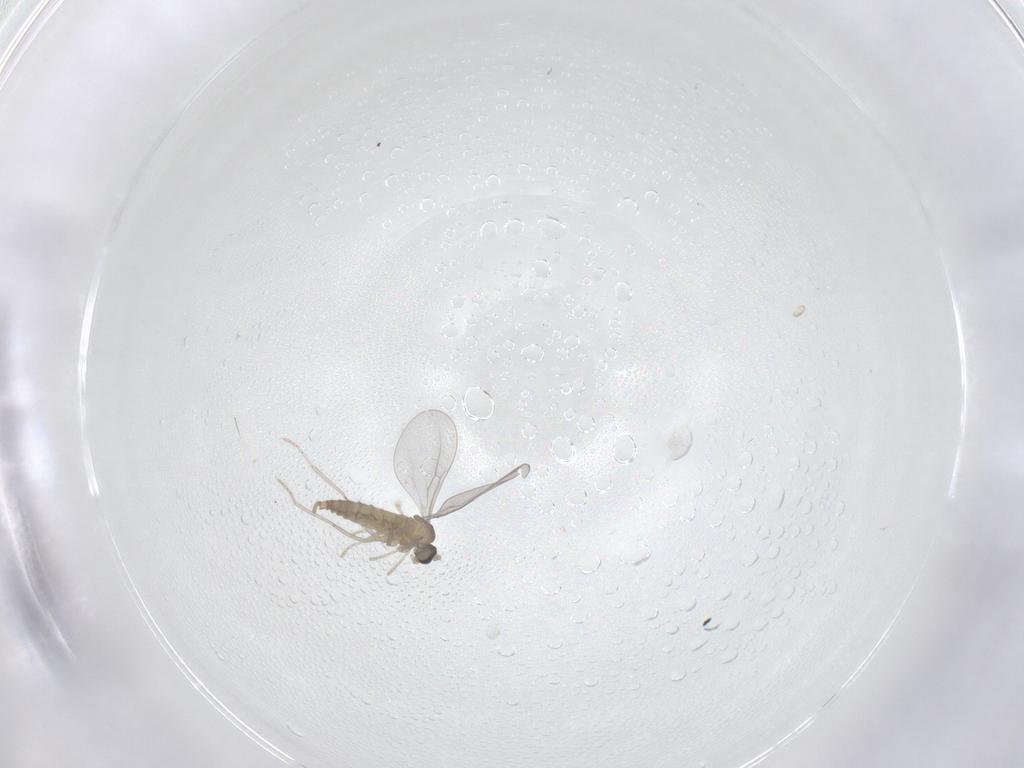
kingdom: Animalia
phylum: Arthropoda
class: Insecta
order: Diptera
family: Cecidomyiidae
